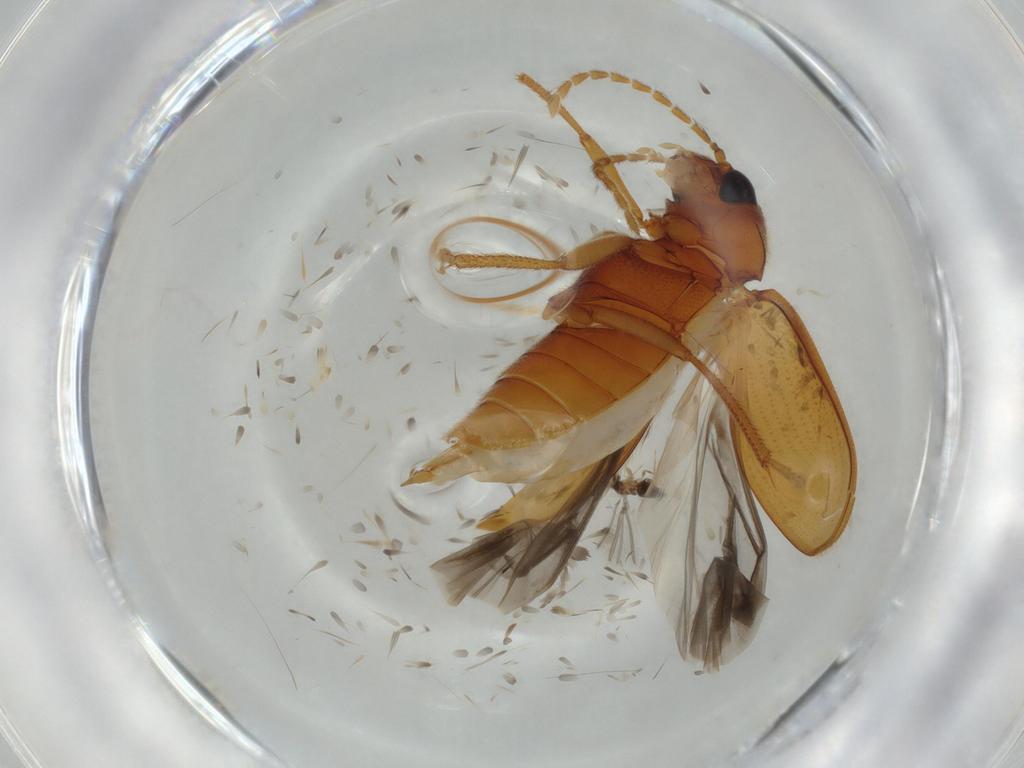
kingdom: Animalia
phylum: Arthropoda
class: Insecta
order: Coleoptera
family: Ptilodactylidae
